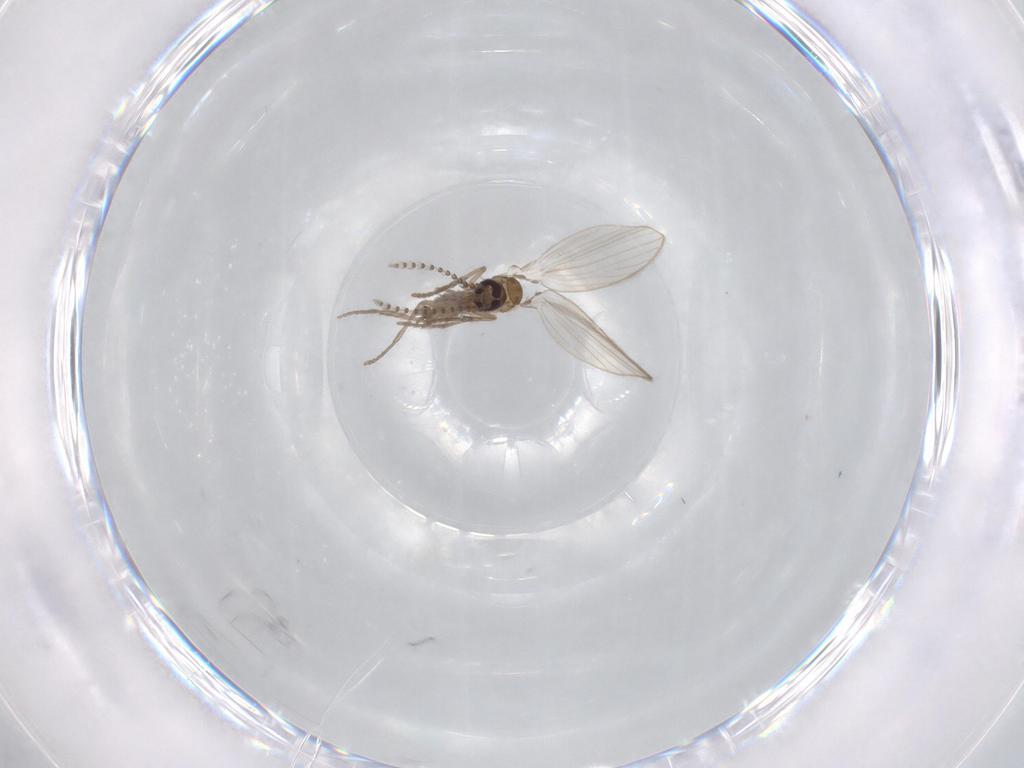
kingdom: Animalia
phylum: Arthropoda
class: Insecta
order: Diptera
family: Psychodidae
